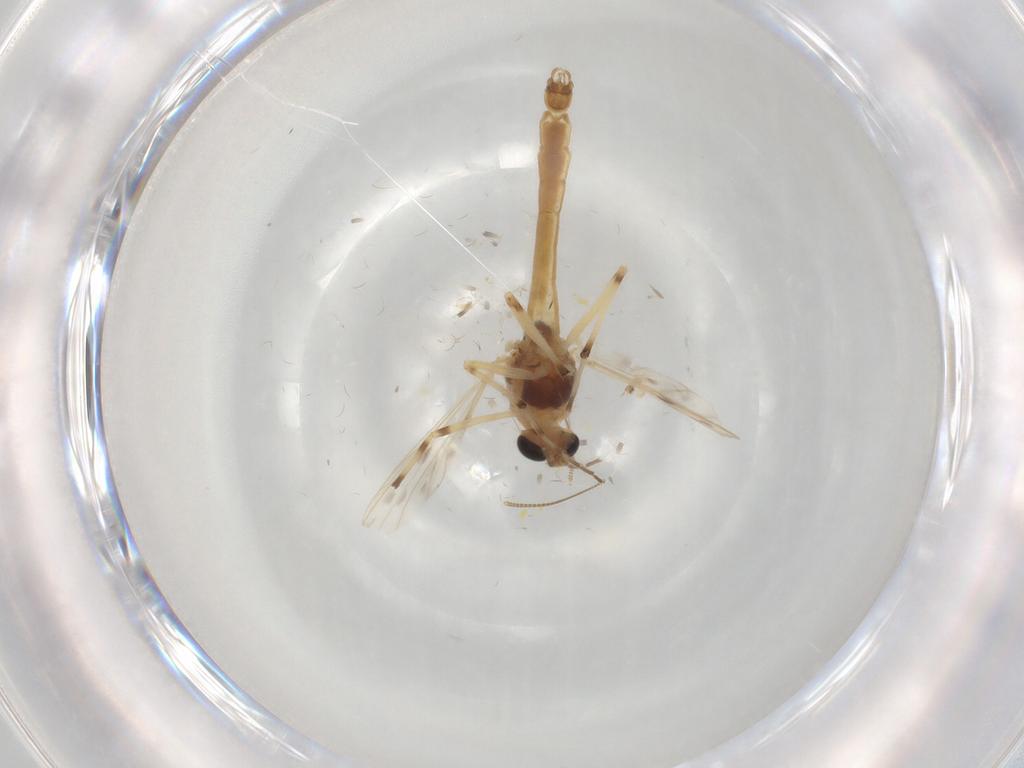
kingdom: Animalia
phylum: Arthropoda
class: Insecta
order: Diptera
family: Chironomidae
